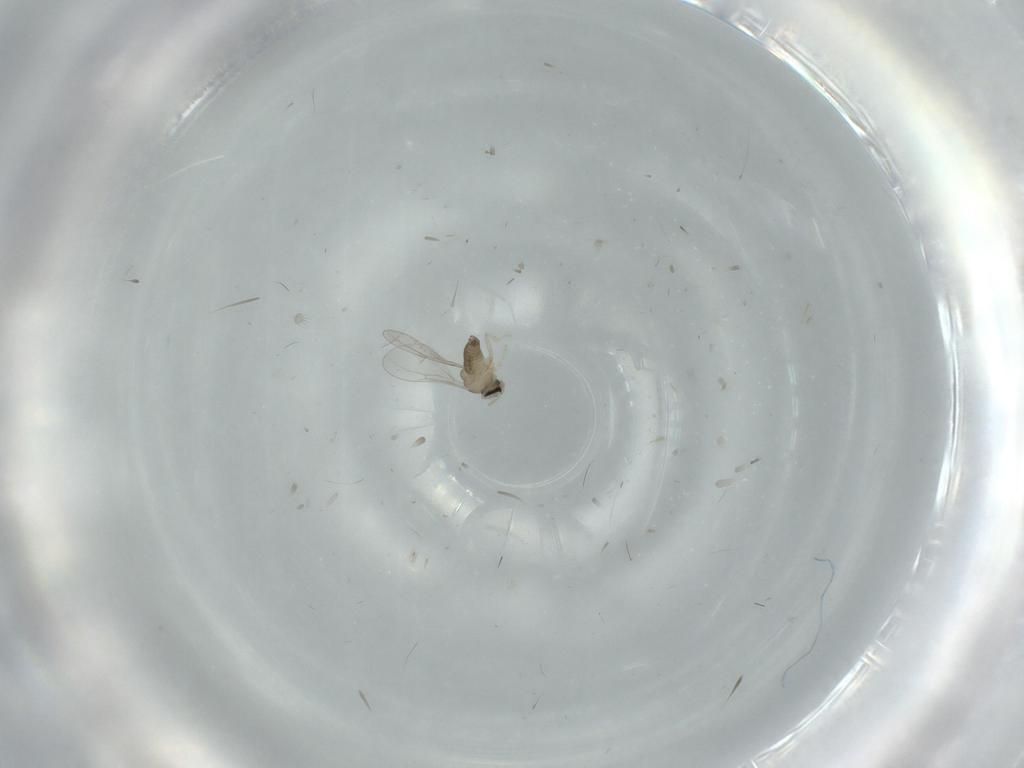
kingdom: Animalia
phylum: Arthropoda
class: Insecta
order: Diptera
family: Cecidomyiidae
